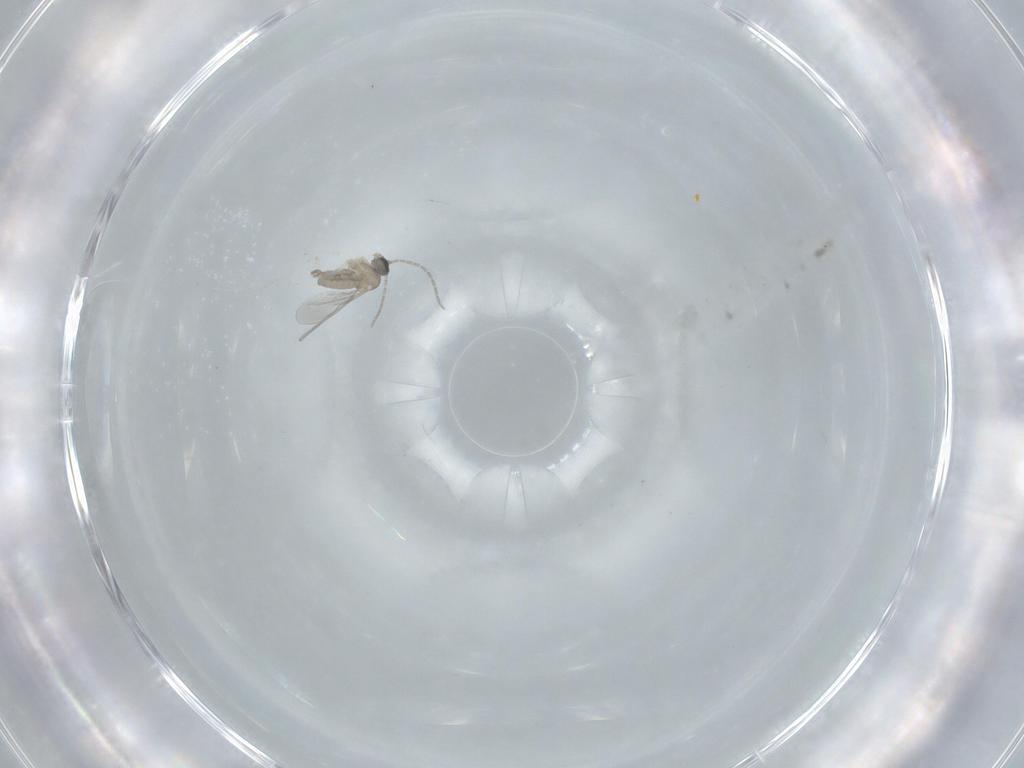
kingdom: Animalia
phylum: Arthropoda
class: Insecta
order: Diptera
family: Cecidomyiidae
